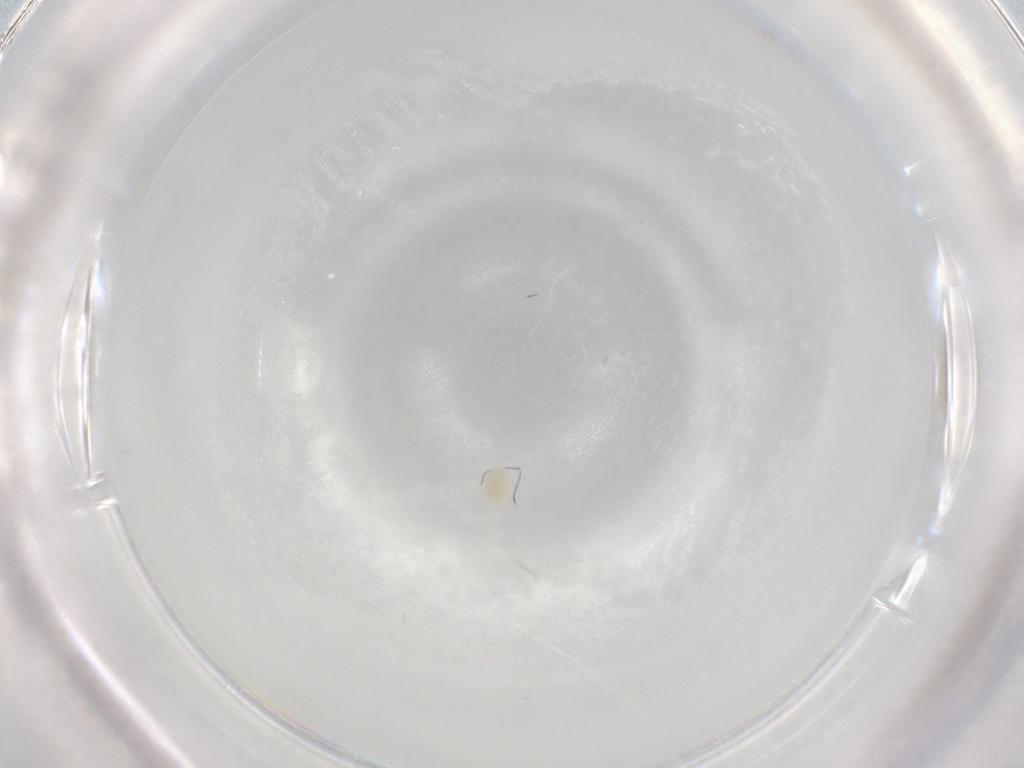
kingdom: Animalia
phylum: Arthropoda
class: Arachnida
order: Trombidiformes
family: Eupodidae
